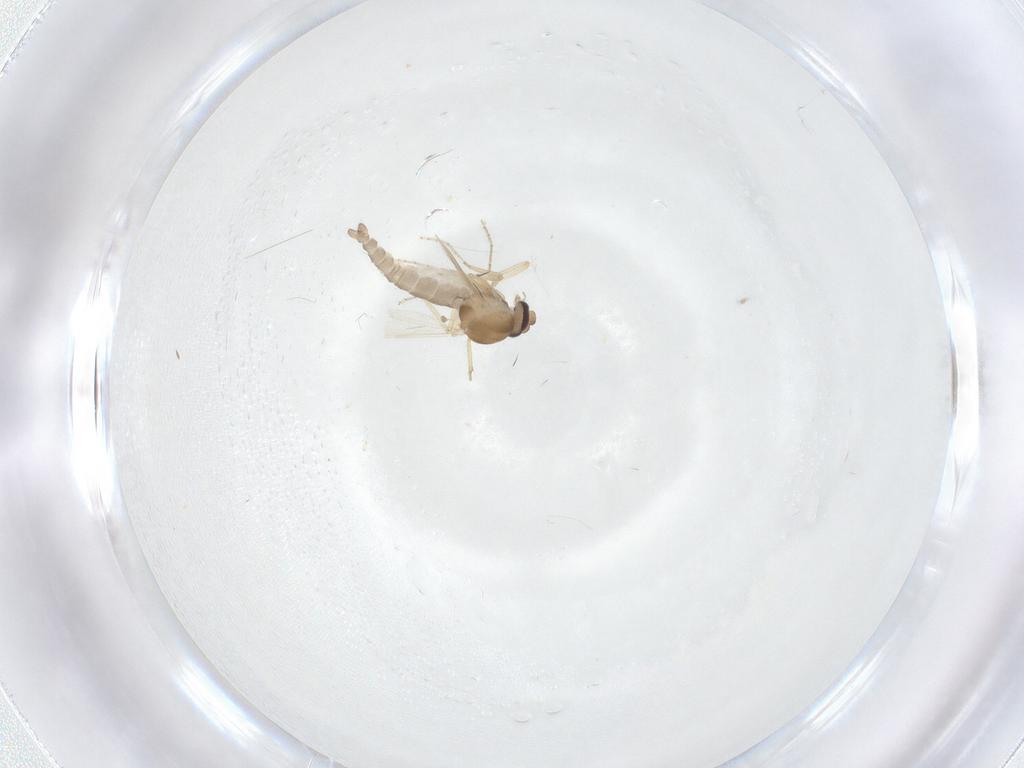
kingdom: Animalia
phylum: Arthropoda
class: Insecta
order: Diptera
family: Ceratopogonidae
